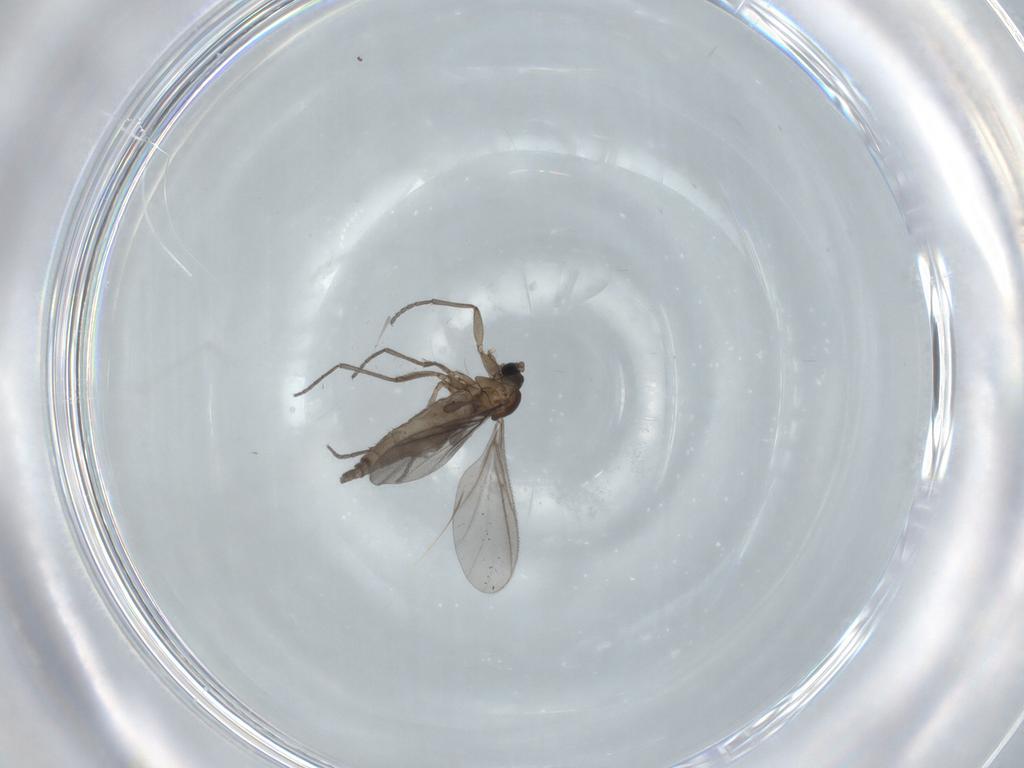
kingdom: Animalia
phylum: Arthropoda
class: Insecta
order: Diptera
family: Sciaridae
